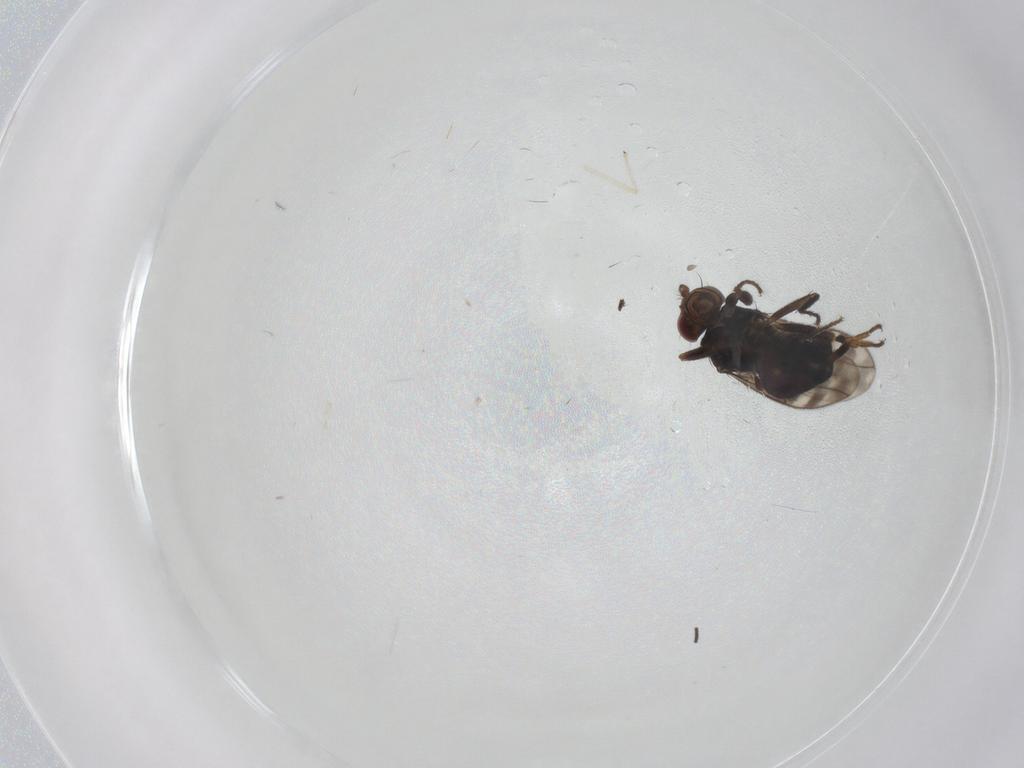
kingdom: Animalia
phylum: Arthropoda
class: Insecta
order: Diptera
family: Sphaeroceridae
